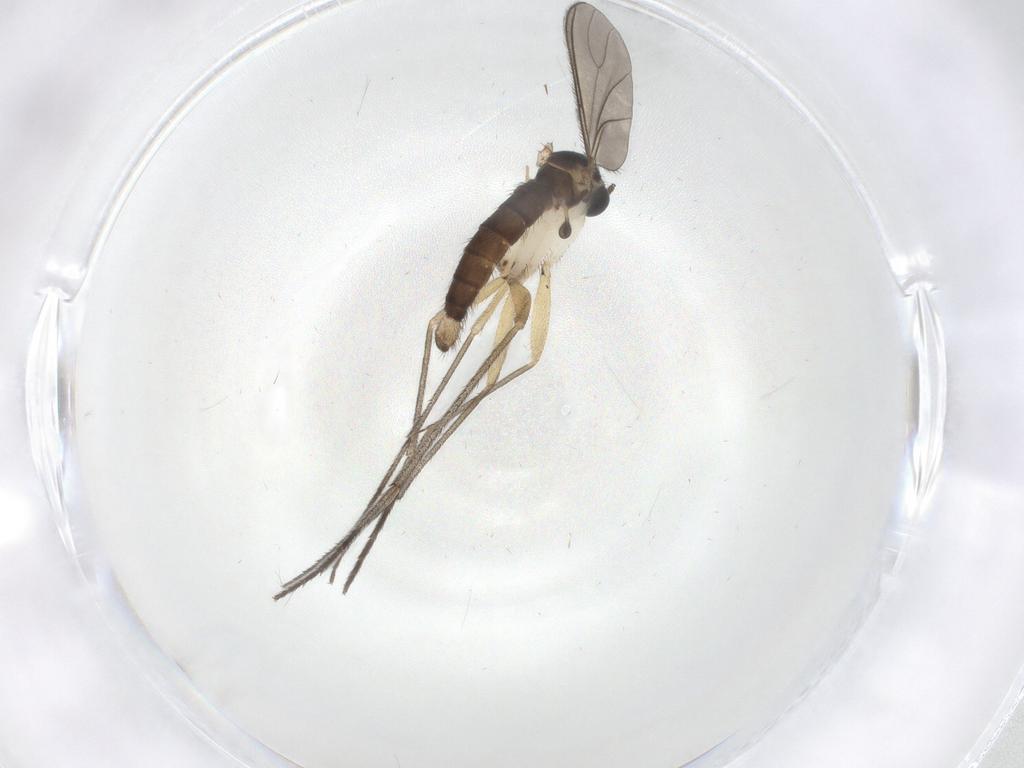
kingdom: Animalia
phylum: Arthropoda
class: Insecta
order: Diptera
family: Sciaridae
